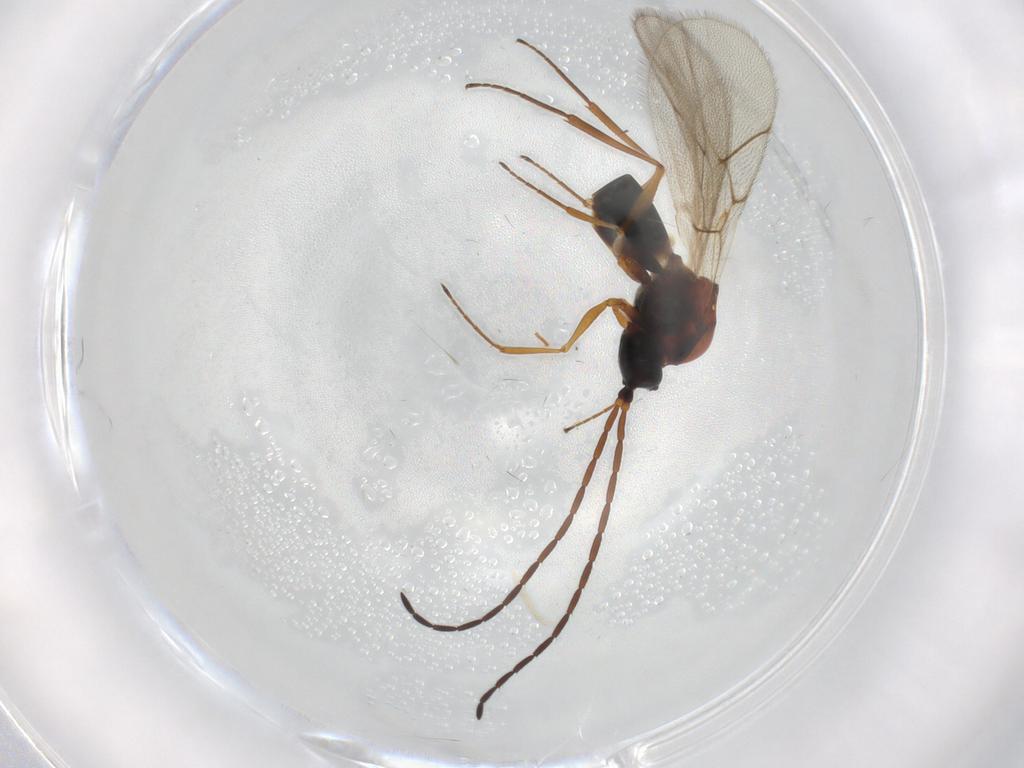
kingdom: Animalia
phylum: Arthropoda
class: Insecta
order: Hymenoptera
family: Figitidae
